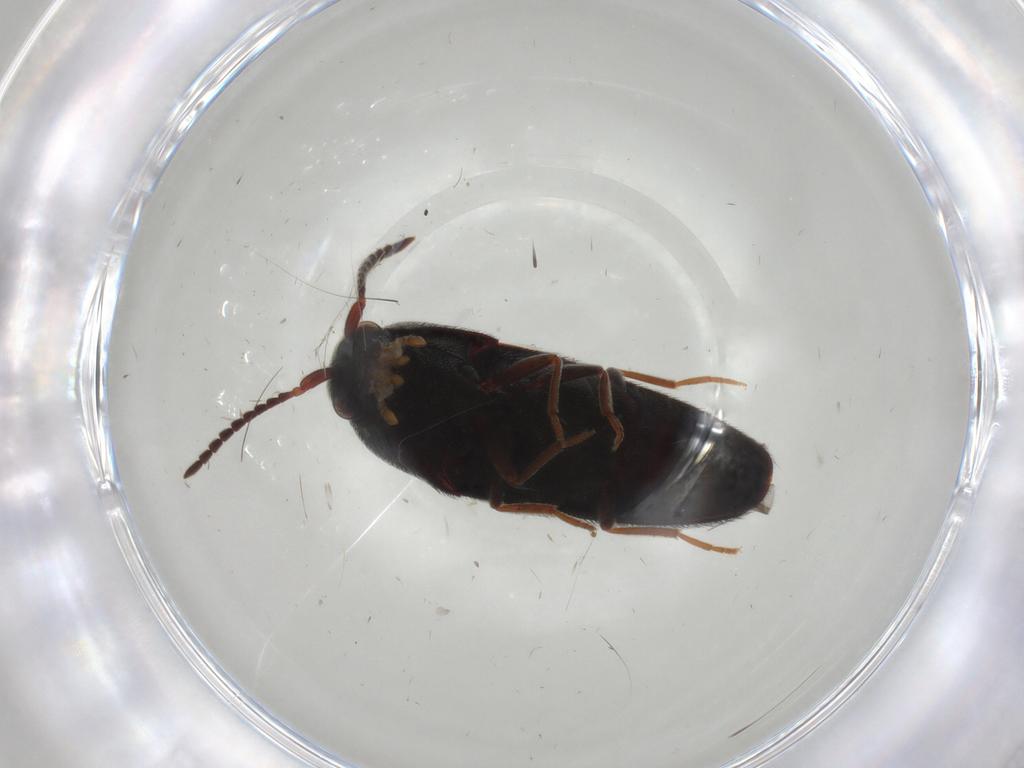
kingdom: Animalia
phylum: Arthropoda
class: Insecta
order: Coleoptera
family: Eucnemidae
